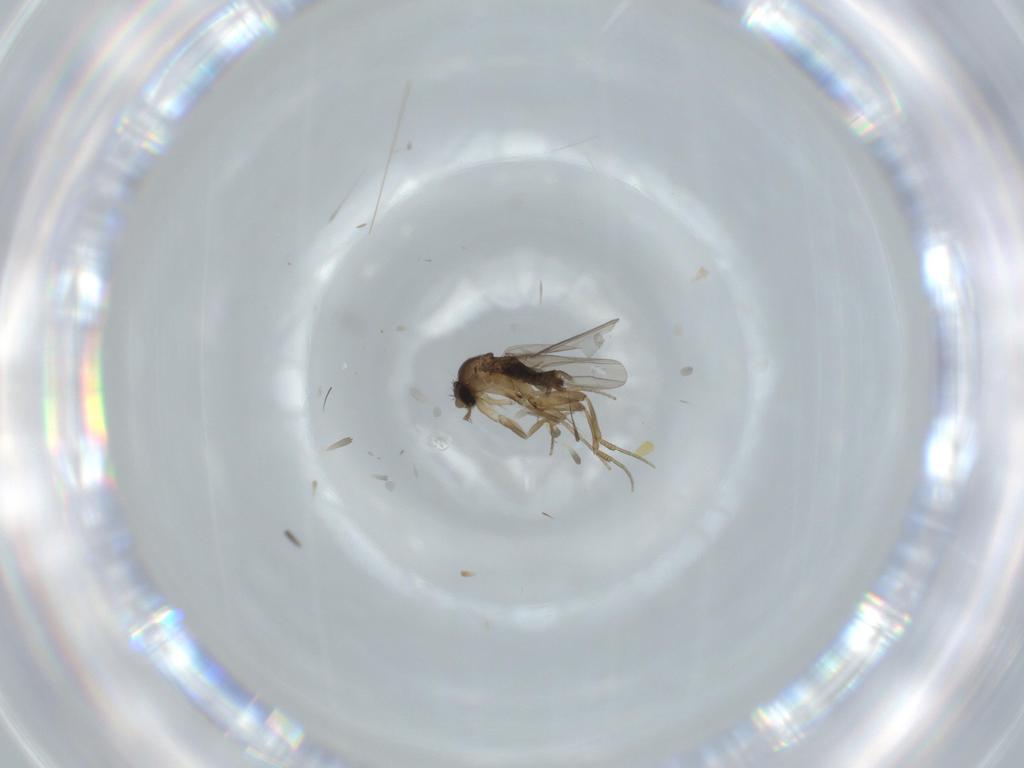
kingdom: Animalia
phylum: Arthropoda
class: Insecta
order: Diptera
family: Phoridae
